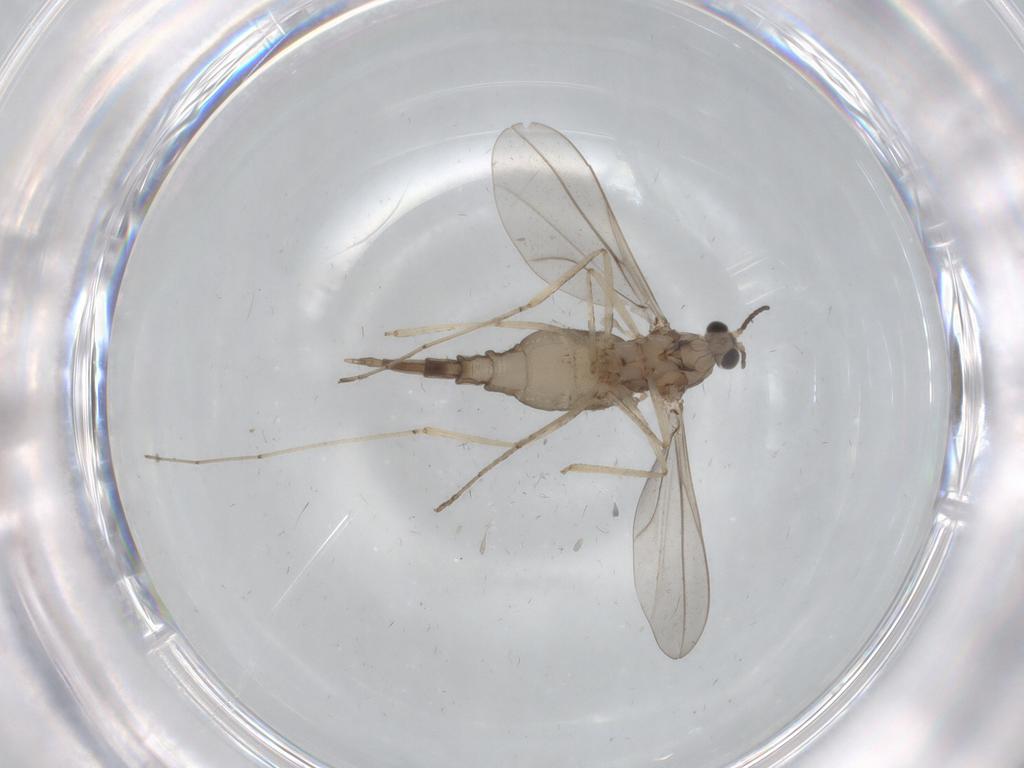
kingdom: Animalia
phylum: Arthropoda
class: Insecta
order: Diptera
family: Cecidomyiidae
